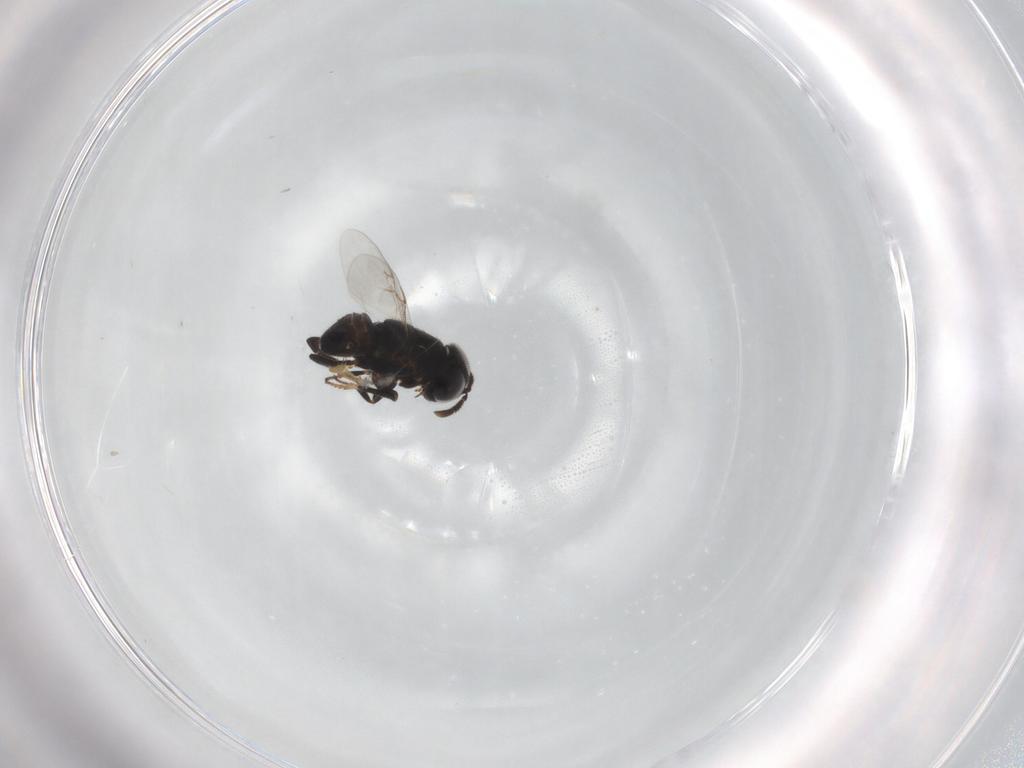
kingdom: Animalia
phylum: Arthropoda
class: Insecta
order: Hymenoptera
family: Encyrtidae
